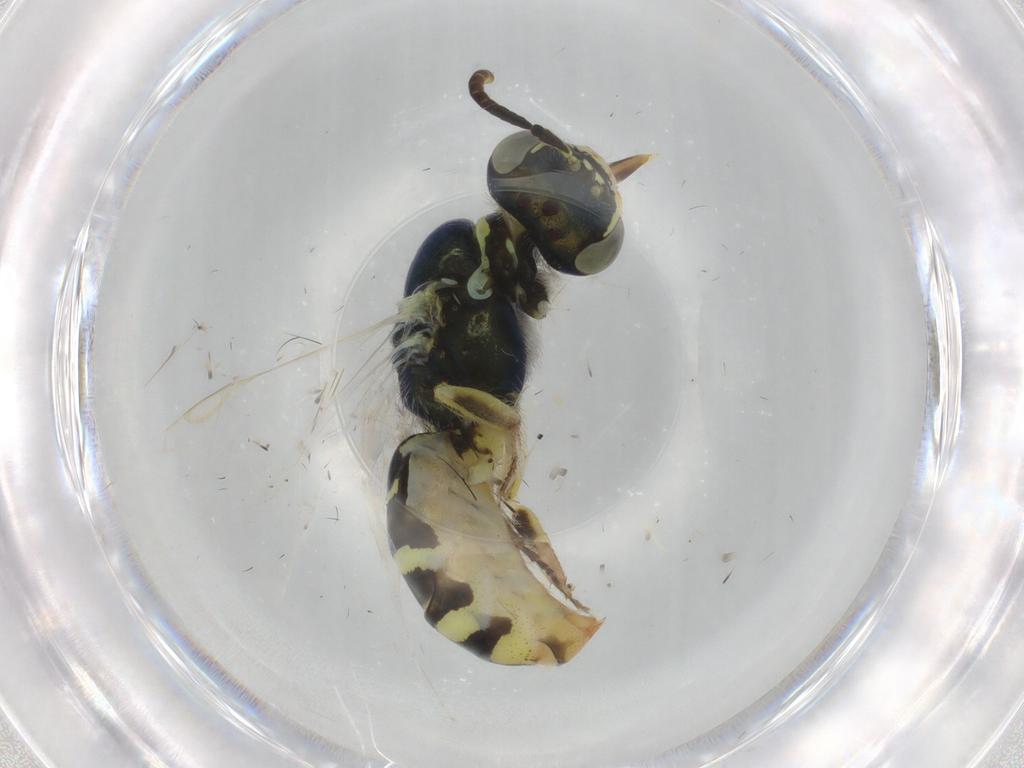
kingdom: Animalia
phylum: Arthropoda
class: Insecta
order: Hymenoptera
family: Andrenidae
